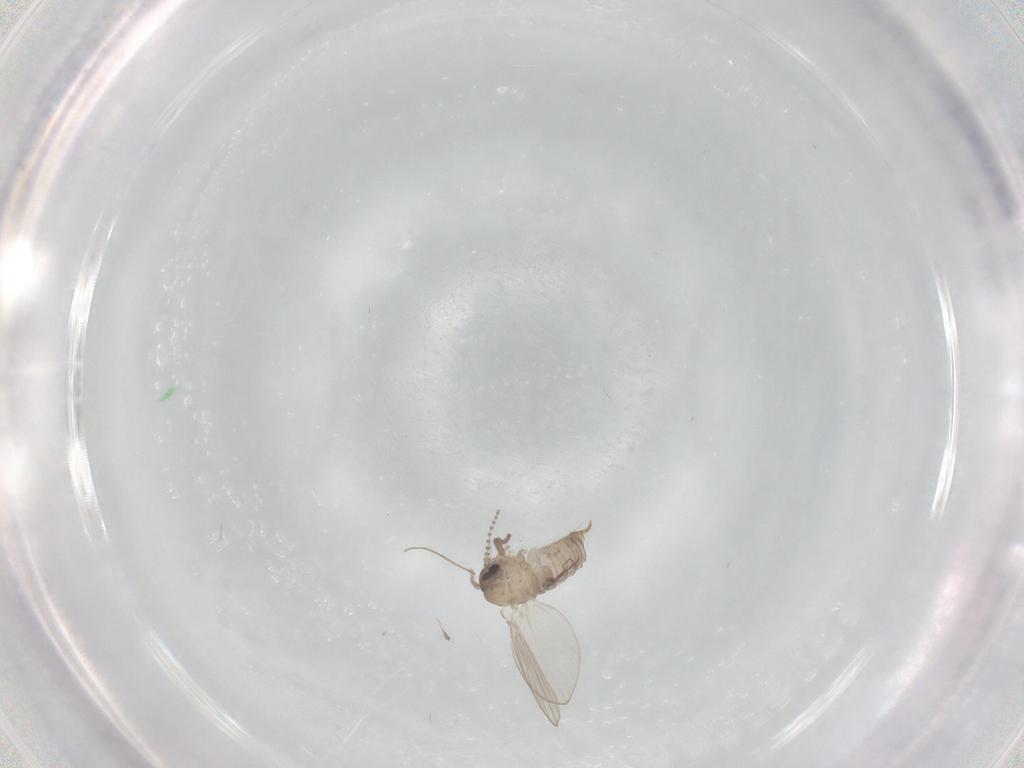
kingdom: Animalia
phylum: Arthropoda
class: Insecta
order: Diptera
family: Psychodidae
